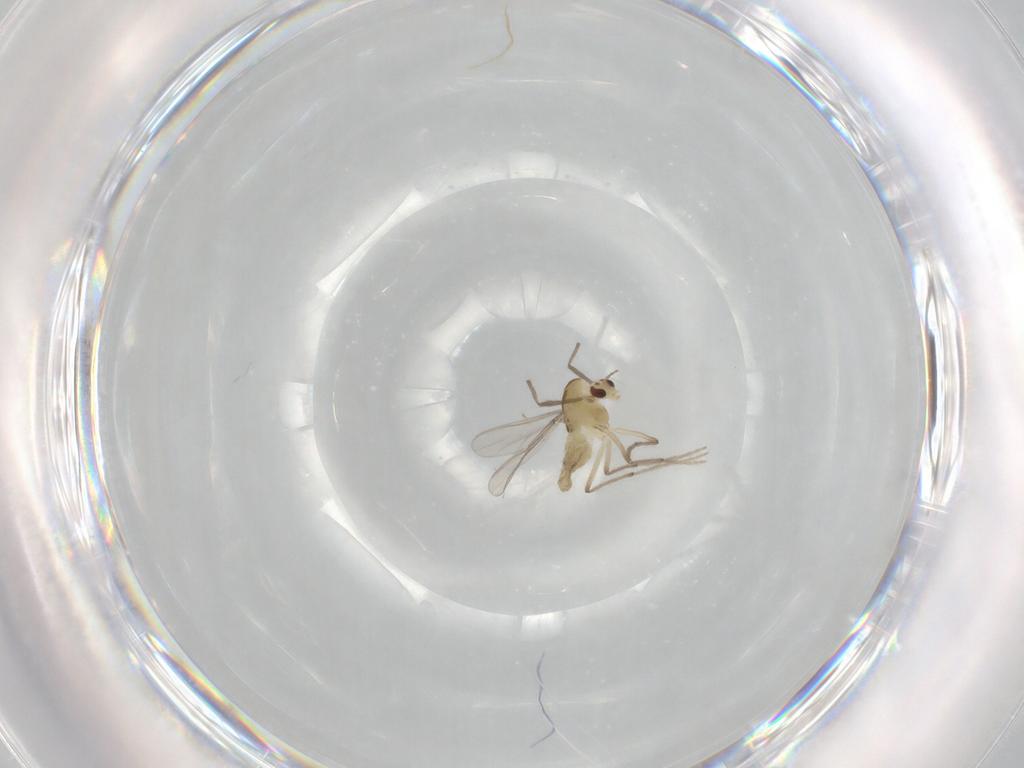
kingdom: Animalia
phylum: Arthropoda
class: Insecta
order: Diptera
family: Chironomidae
